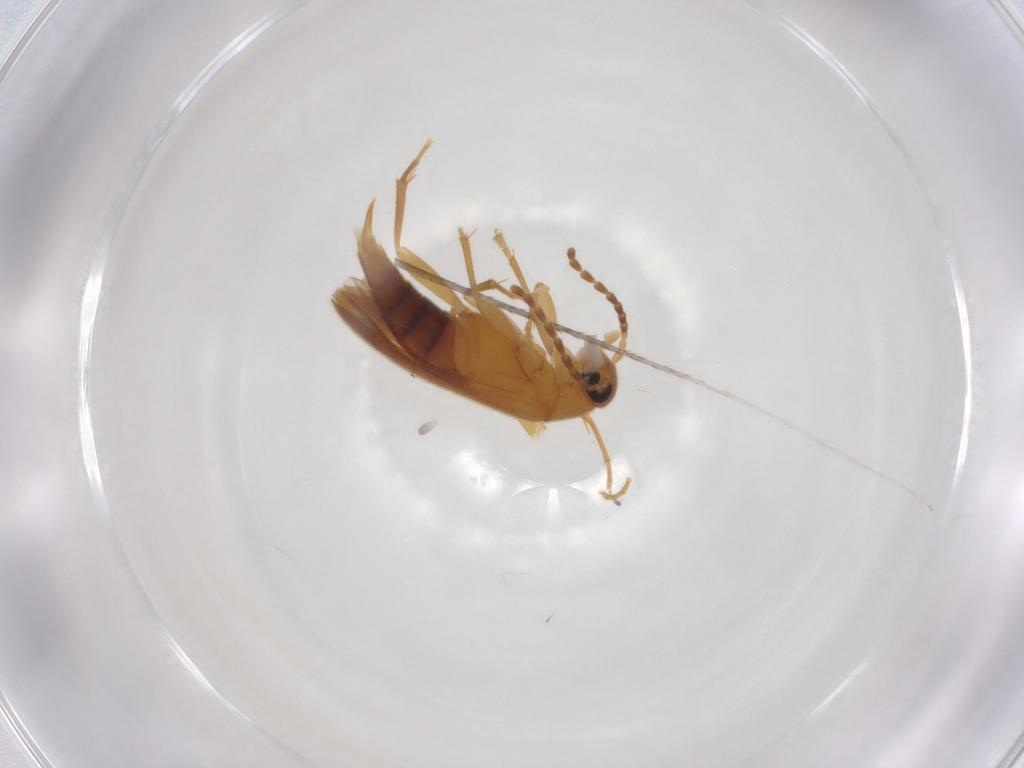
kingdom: Animalia
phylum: Arthropoda
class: Insecta
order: Coleoptera
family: Scraptiidae
